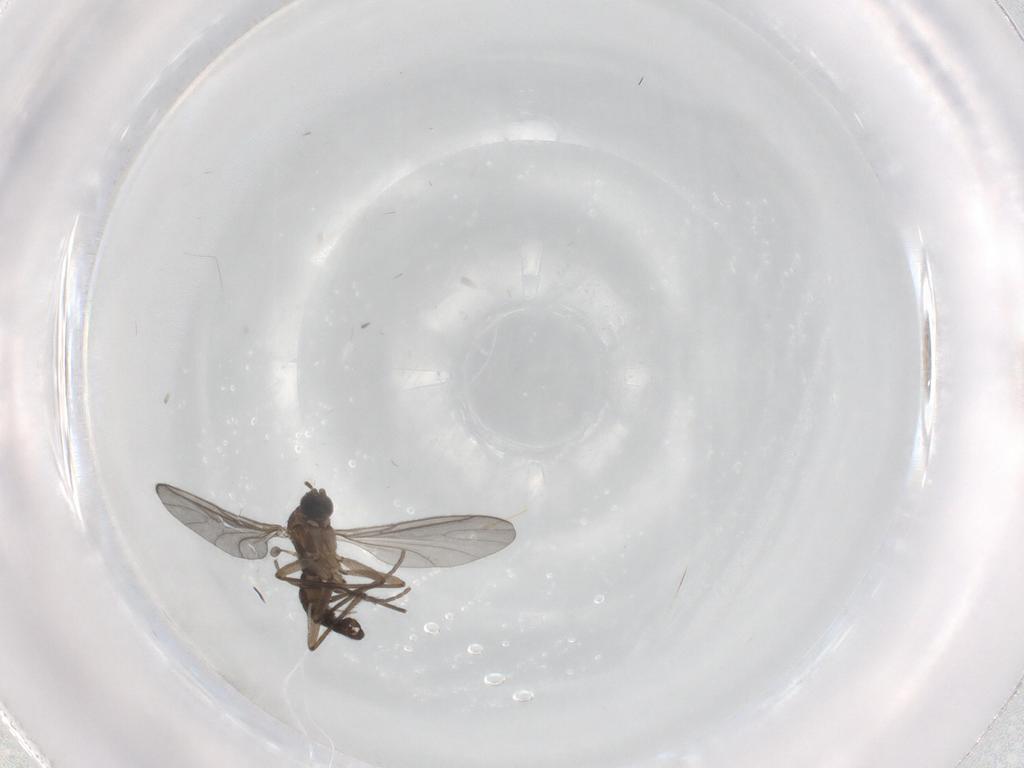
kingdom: Animalia
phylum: Arthropoda
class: Insecta
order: Diptera
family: Sciaridae
